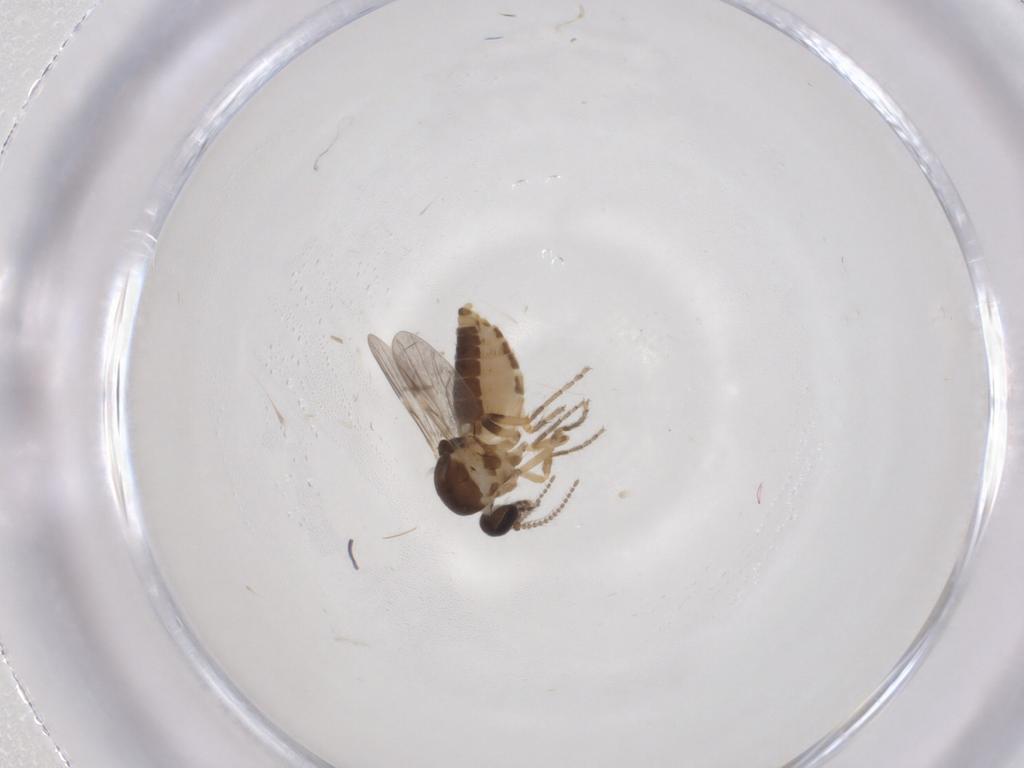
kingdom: Animalia
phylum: Arthropoda
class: Insecta
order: Diptera
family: Ceratopogonidae
